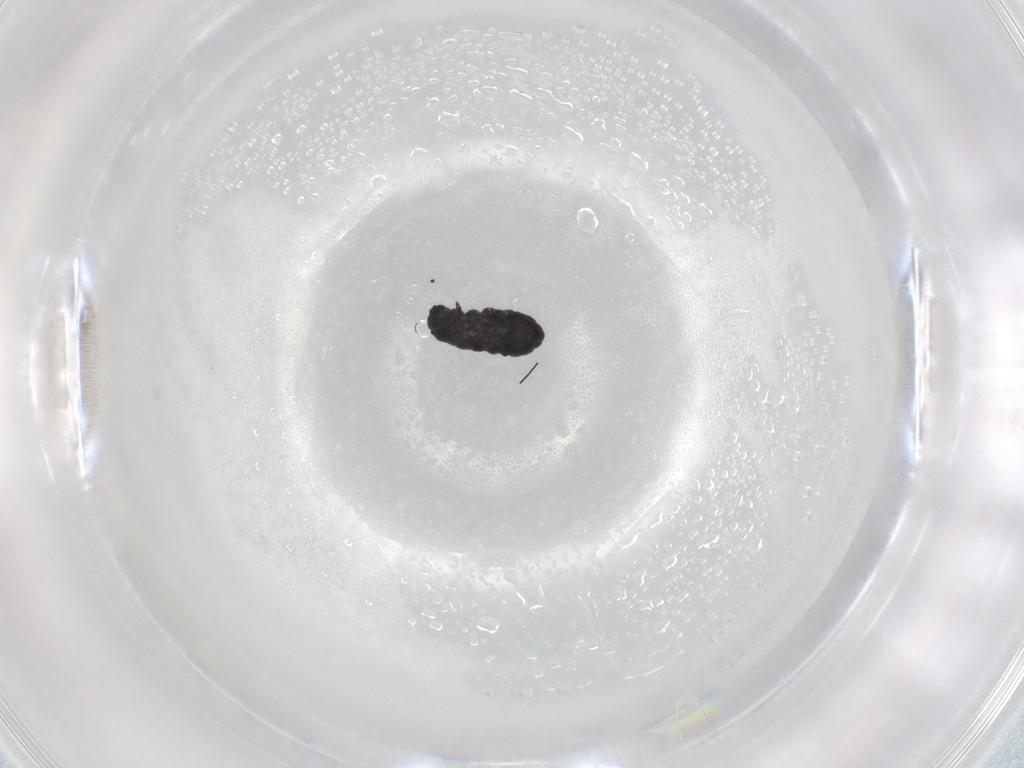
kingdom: Animalia
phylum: Arthropoda
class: Collembola
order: Poduromorpha
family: Neanuridae
